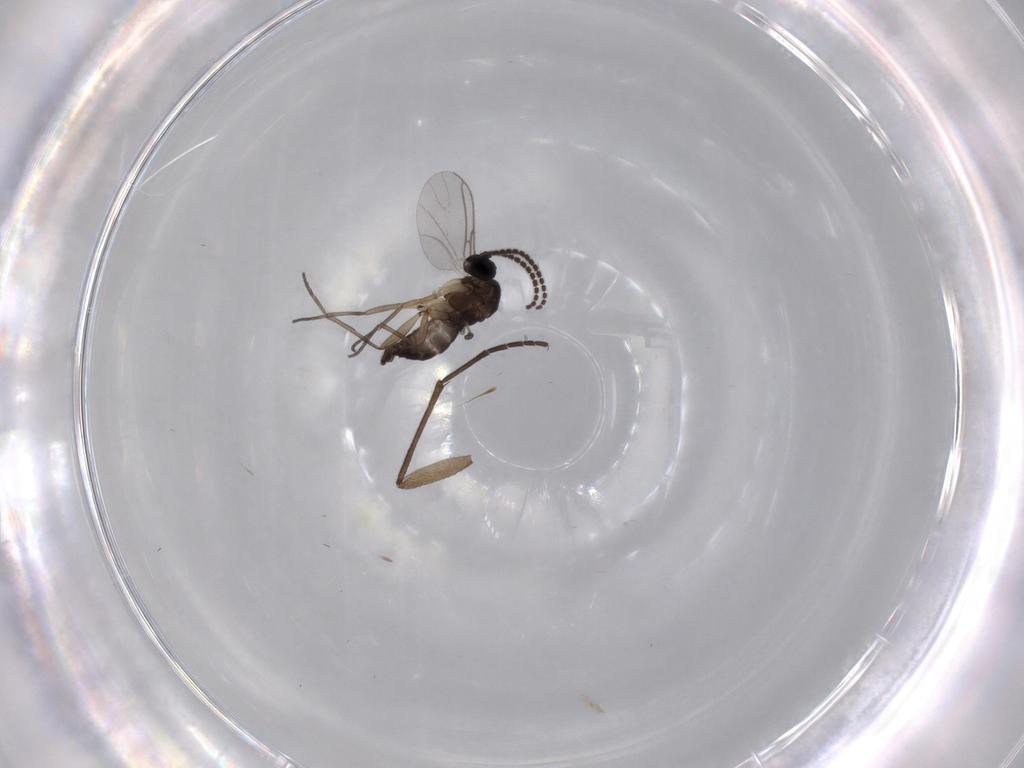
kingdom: Animalia
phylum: Arthropoda
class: Insecta
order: Diptera
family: Sciaridae
